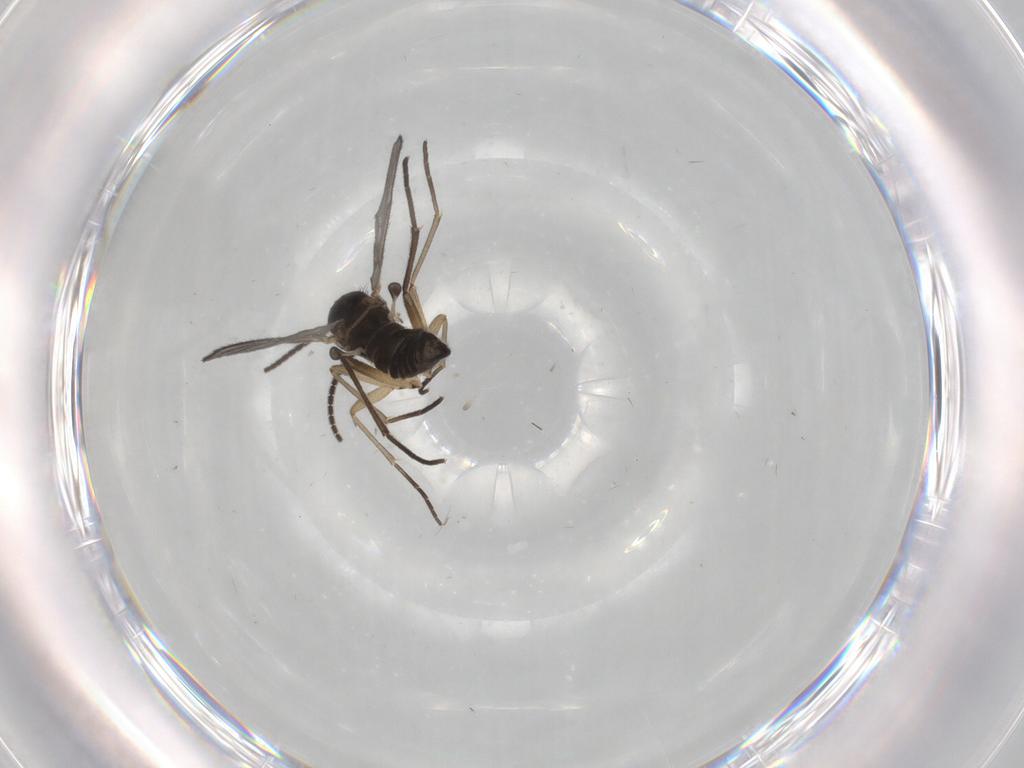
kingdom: Animalia
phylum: Arthropoda
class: Insecta
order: Diptera
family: Sciaridae
